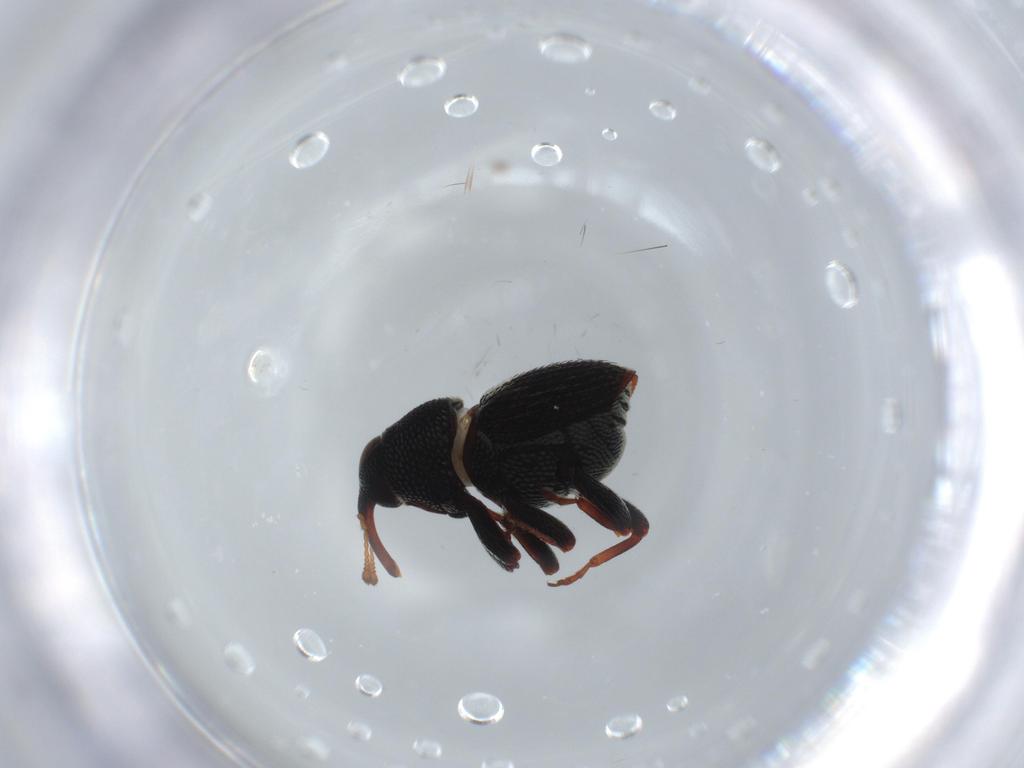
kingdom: Animalia
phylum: Arthropoda
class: Insecta
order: Coleoptera
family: Curculionidae
